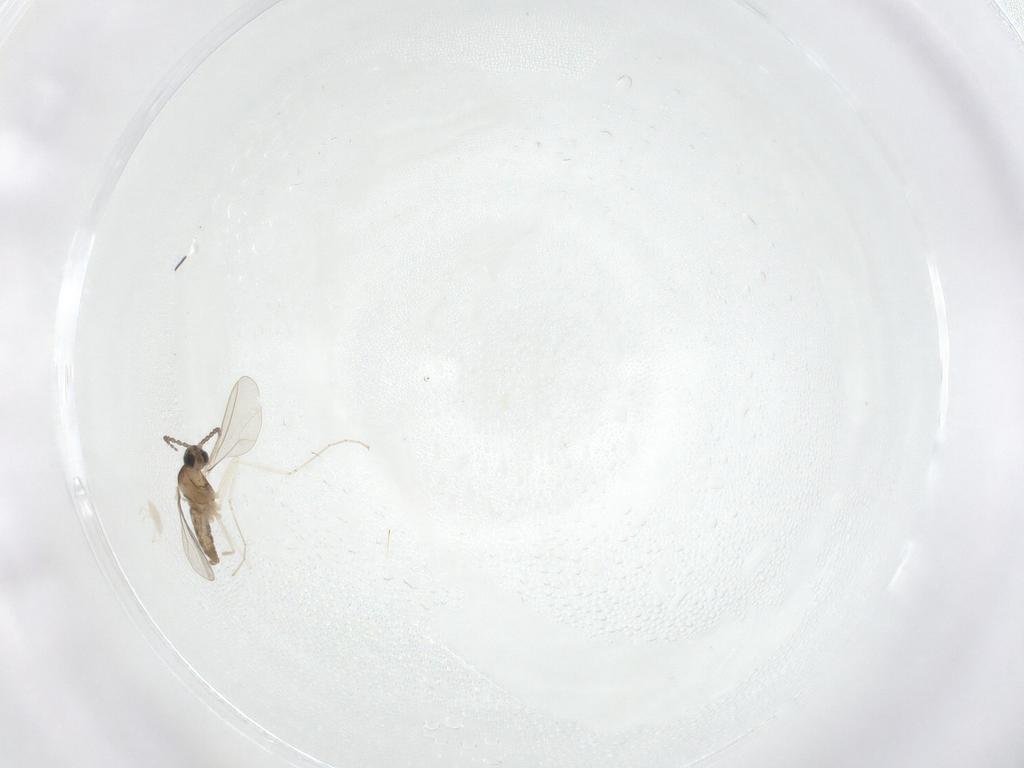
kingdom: Animalia
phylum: Arthropoda
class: Insecta
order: Diptera
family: Cecidomyiidae
